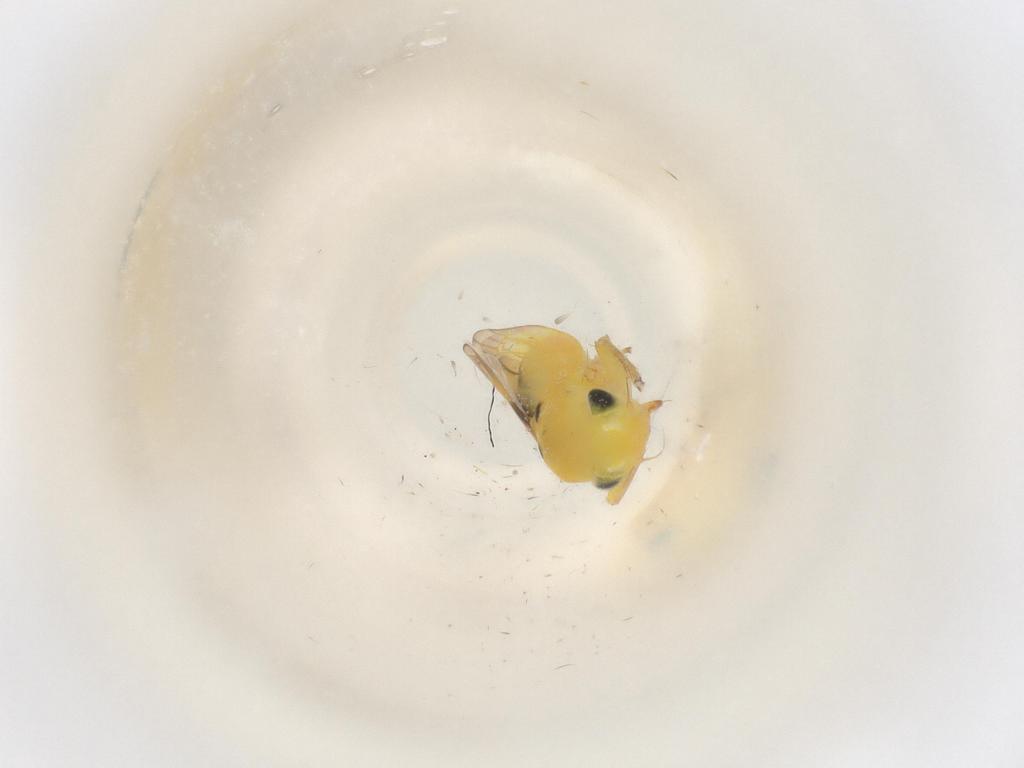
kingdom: Animalia
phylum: Arthropoda
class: Insecta
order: Hemiptera
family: Cicadellidae
